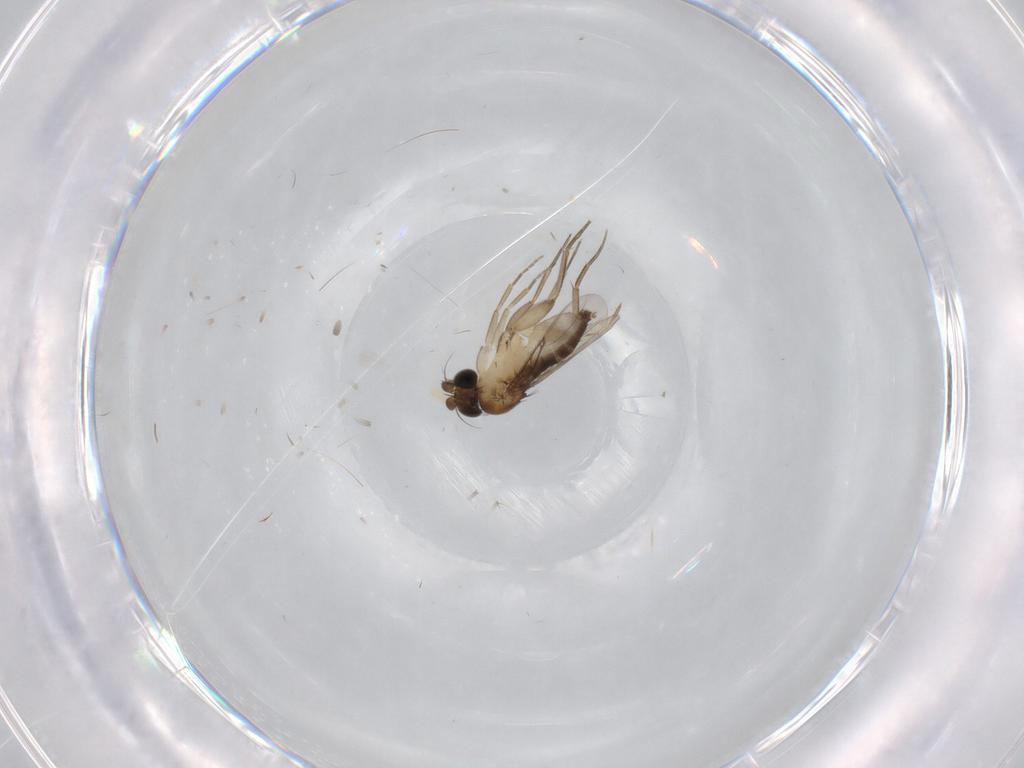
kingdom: Animalia
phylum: Arthropoda
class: Insecta
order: Diptera
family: Phoridae
